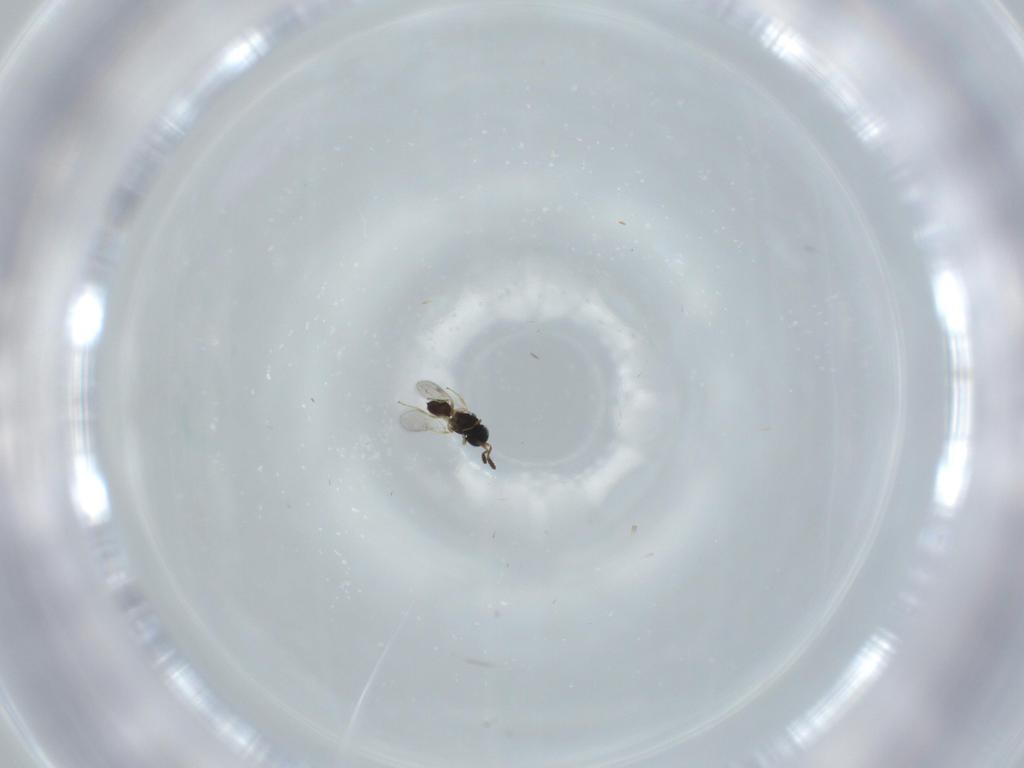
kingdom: Animalia
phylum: Arthropoda
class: Insecta
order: Hymenoptera
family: Scelionidae
